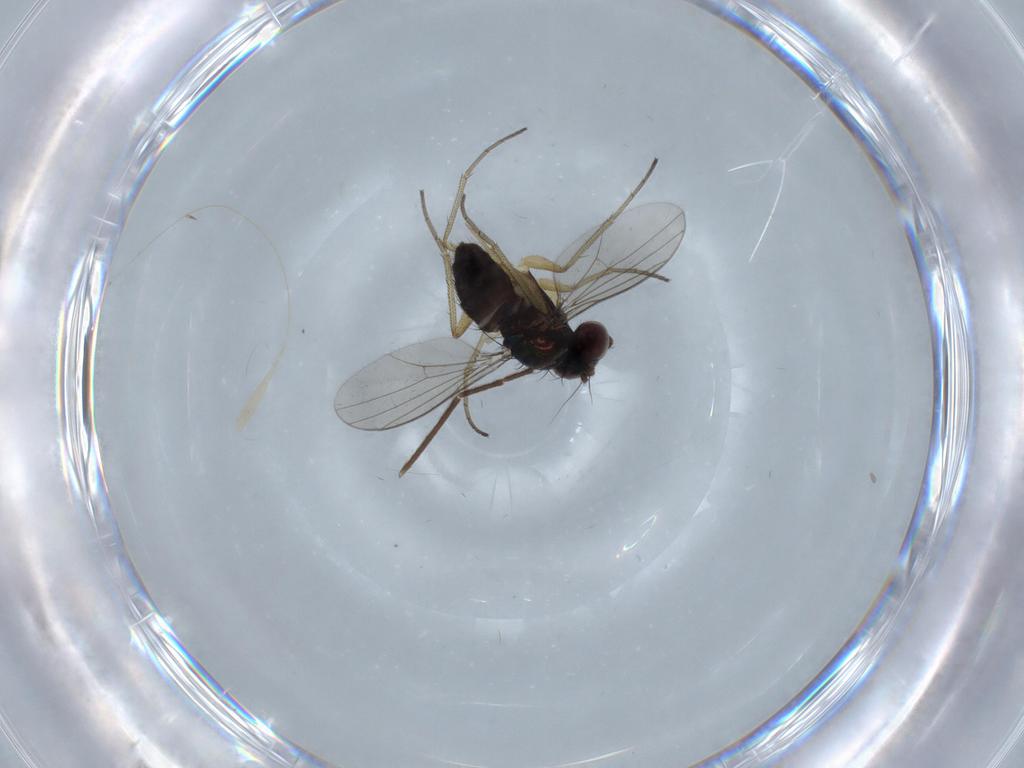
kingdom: Animalia
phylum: Arthropoda
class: Insecta
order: Diptera
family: Dolichopodidae
